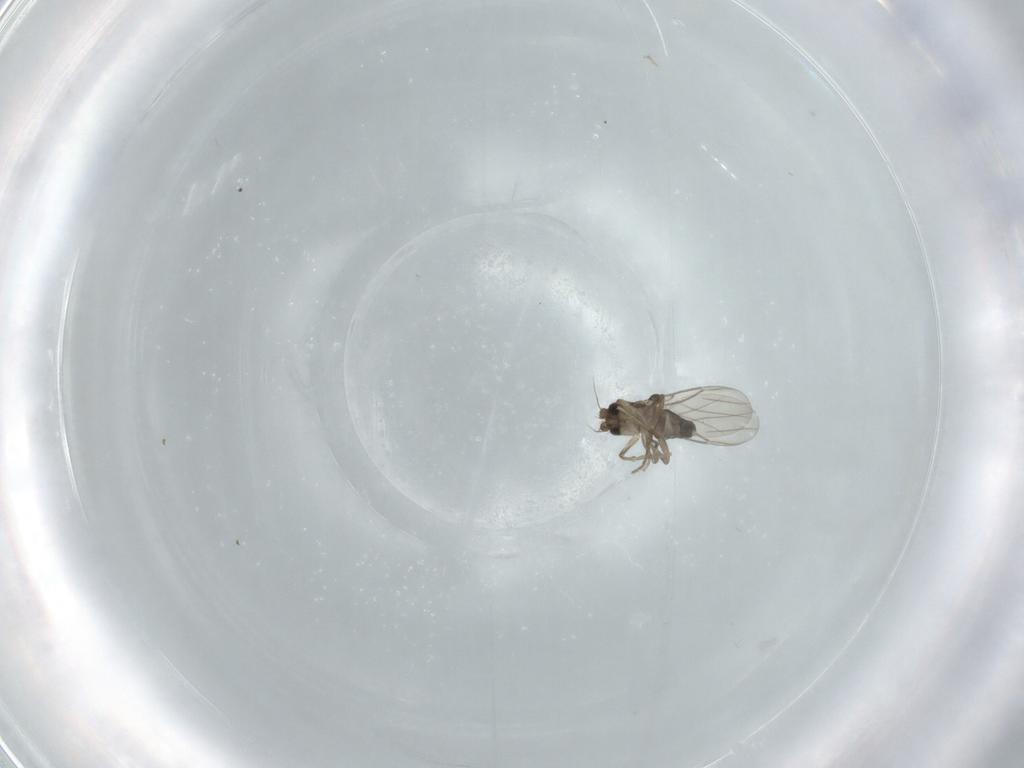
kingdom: Animalia
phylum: Arthropoda
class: Insecta
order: Diptera
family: Phoridae
